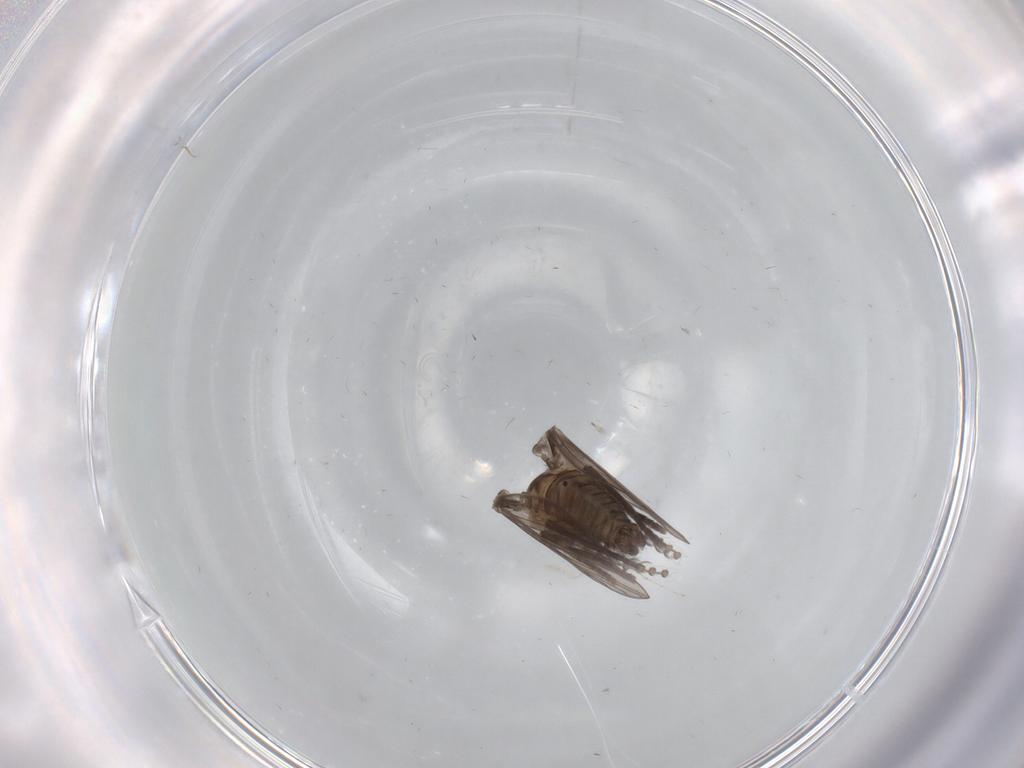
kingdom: Animalia
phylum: Arthropoda
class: Insecta
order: Diptera
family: Psychodidae
